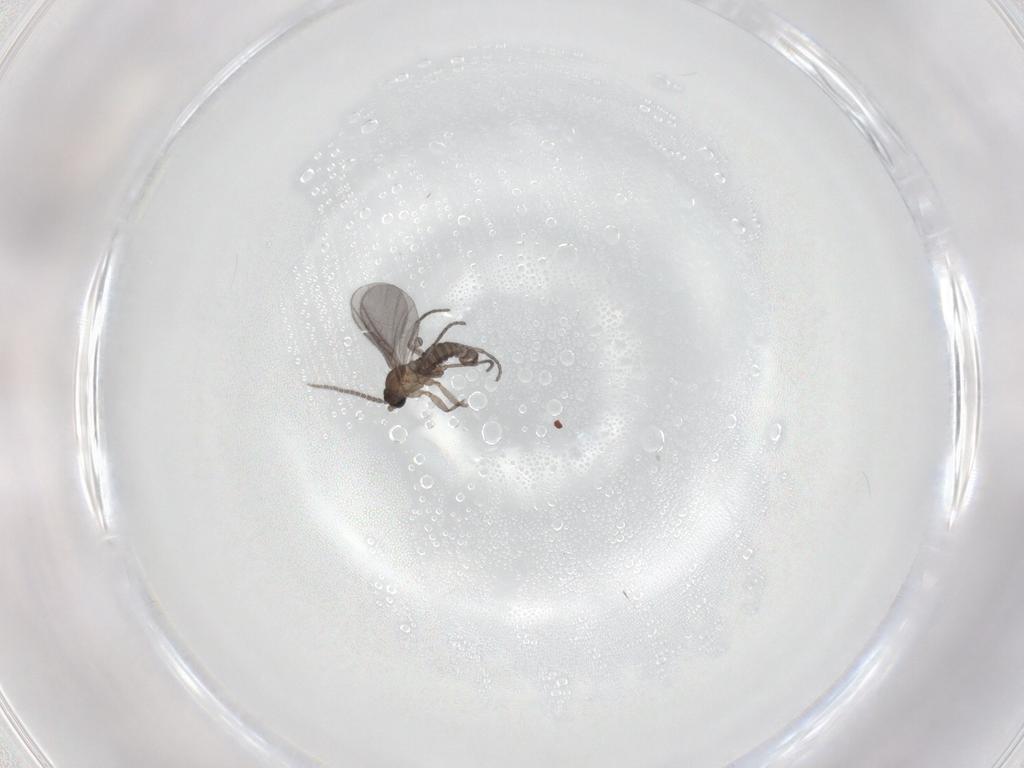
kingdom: Animalia
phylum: Arthropoda
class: Insecta
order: Diptera
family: Sciaridae
